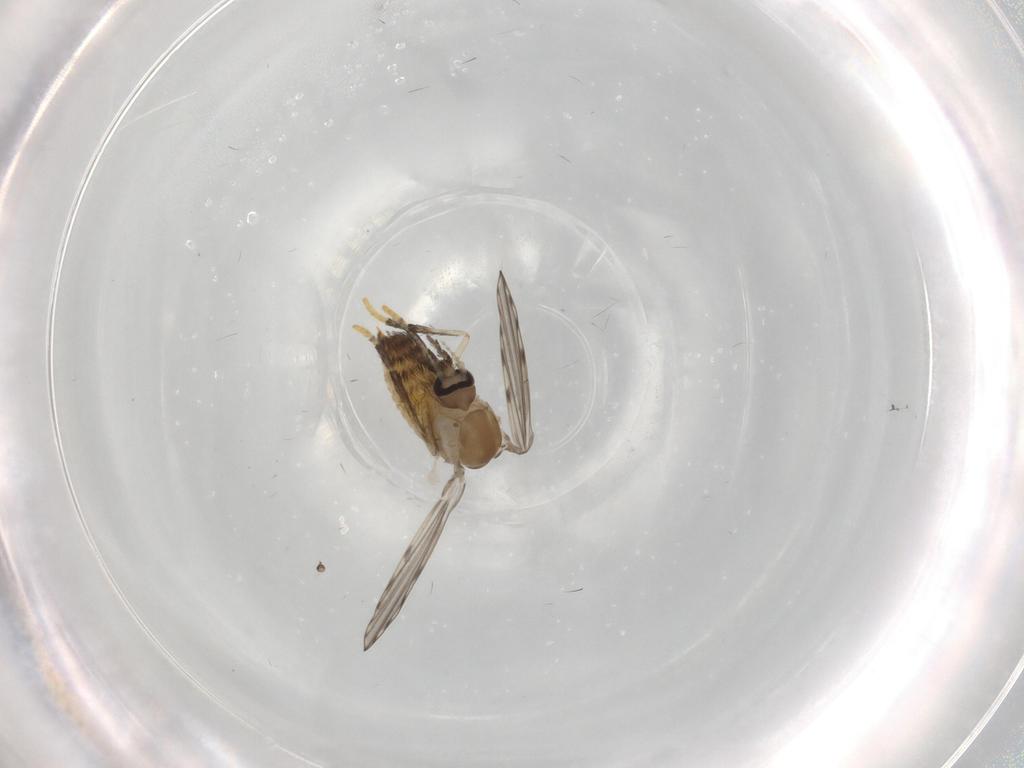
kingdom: Animalia
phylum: Arthropoda
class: Insecta
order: Diptera
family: Psychodidae
